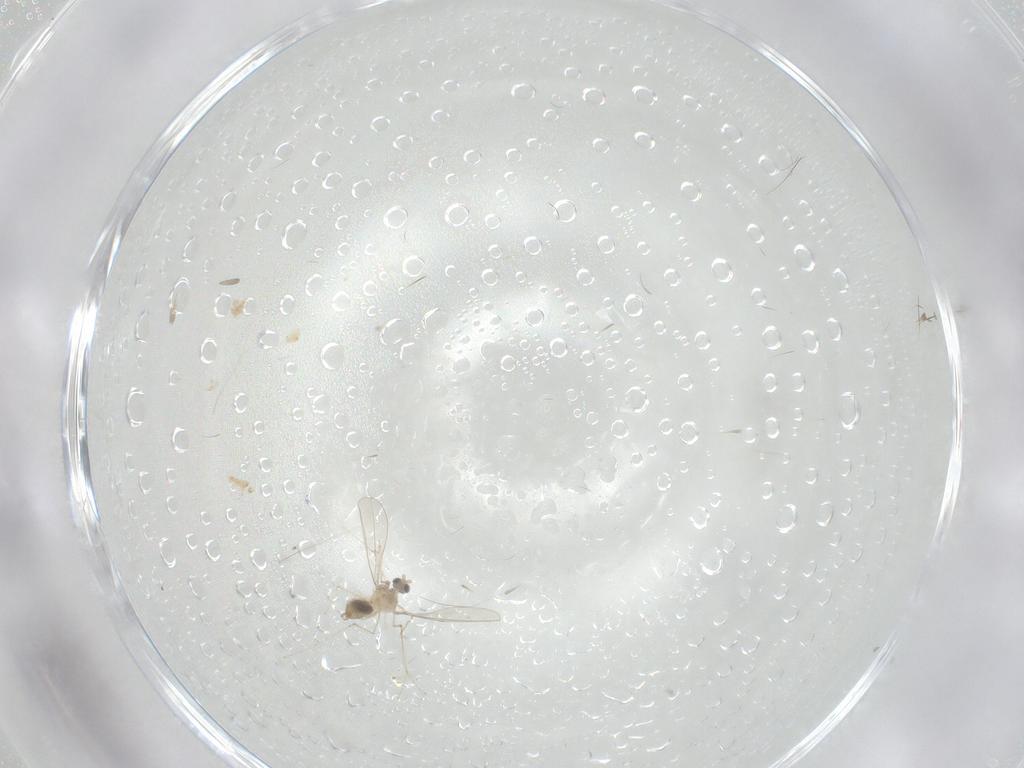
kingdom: Animalia
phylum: Arthropoda
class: Insecta
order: Diptera
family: Cecidomyiidae
